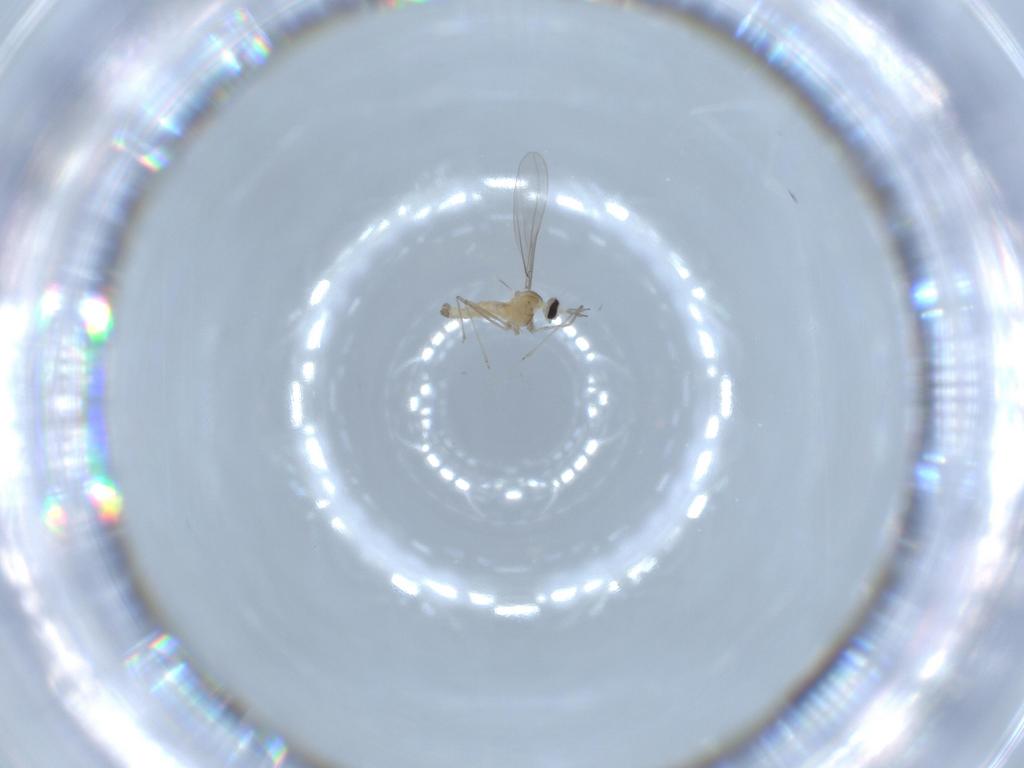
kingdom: Animalia
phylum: Arthropoda
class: Insecta
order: Diptera
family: Cecidomyiidae
